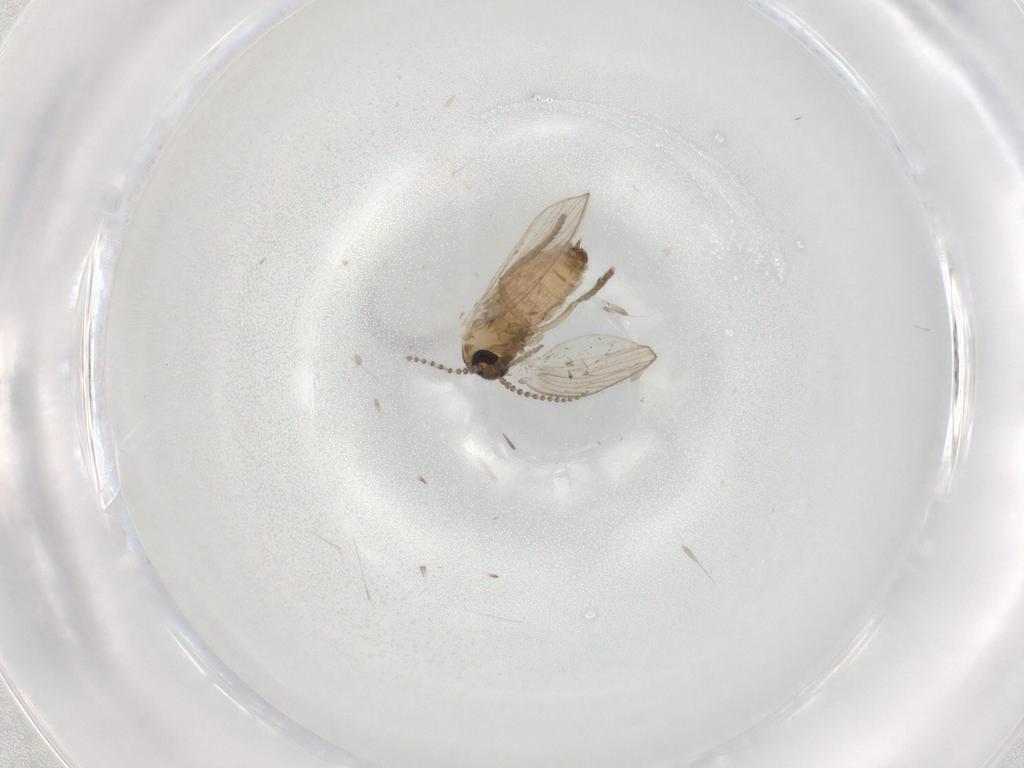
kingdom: Animalia
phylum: Arthropoda
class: Insecta
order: Diptera
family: Psychodidae
